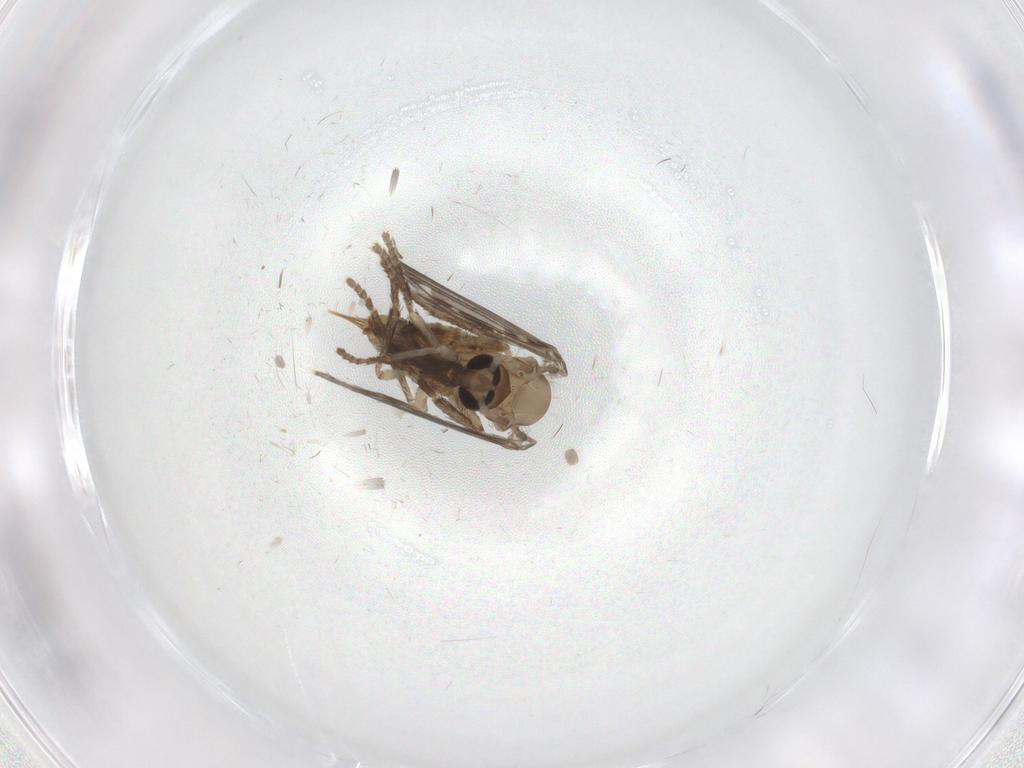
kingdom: Animalia
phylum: Arthropoda
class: Insecta
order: Diptera
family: Psychodidae
